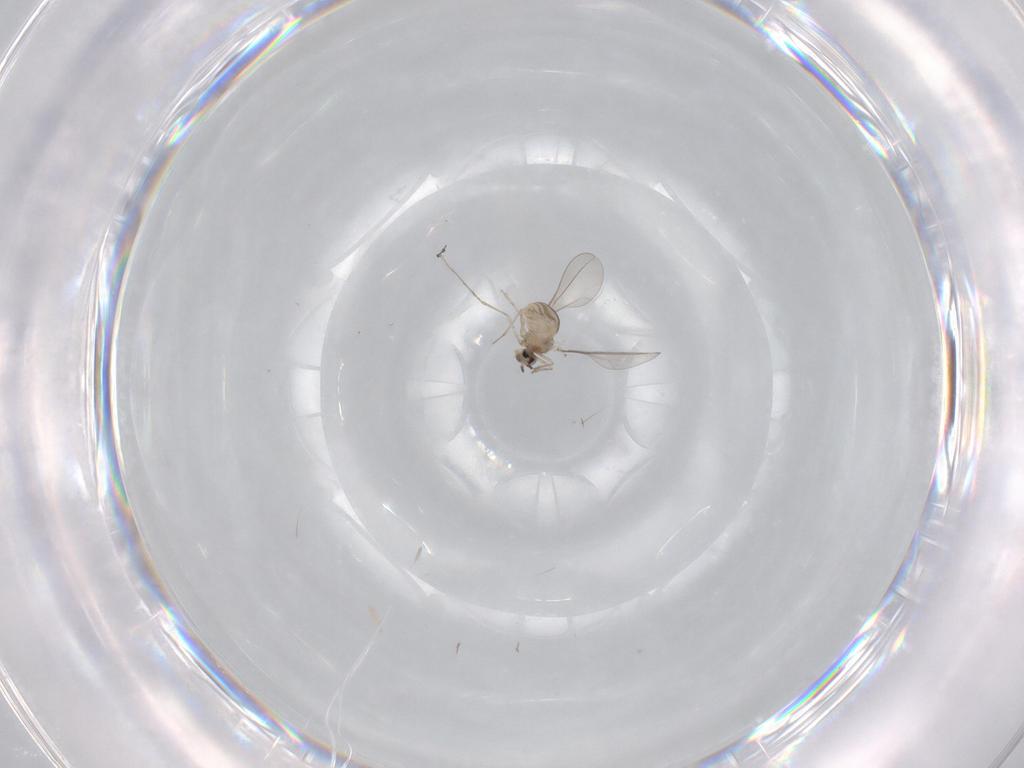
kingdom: Animalia
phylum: Arthropoda
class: Insecta
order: Diptera
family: Cecidomyiidae
